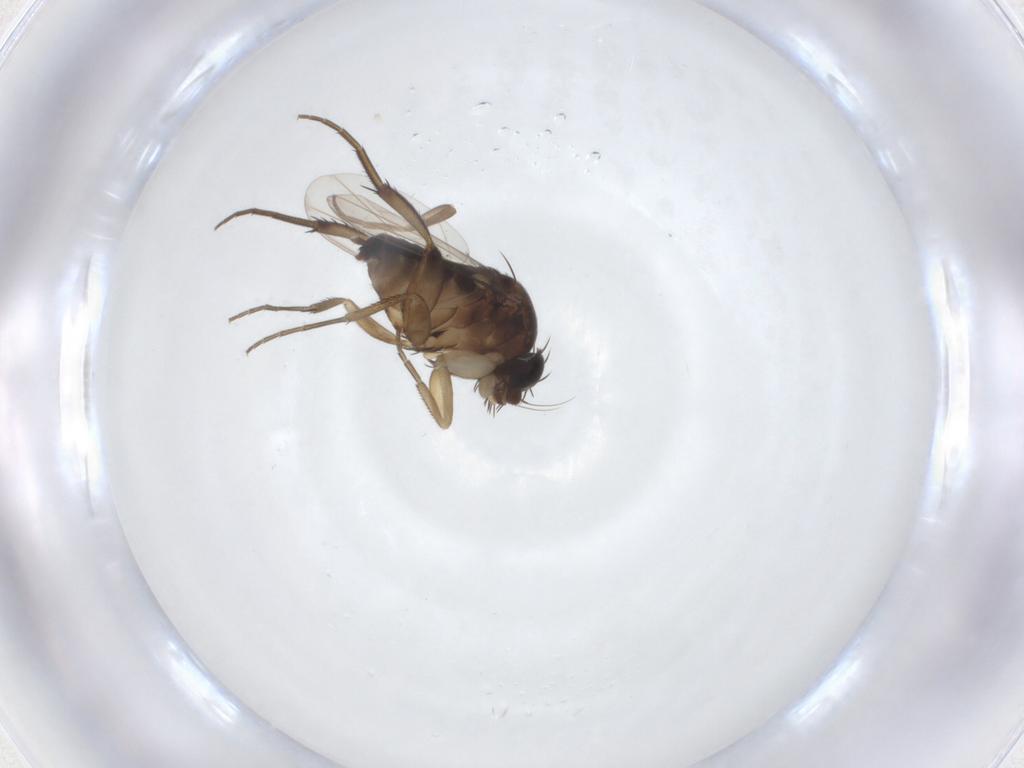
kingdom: Animalia
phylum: Arthropoda
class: Insecta
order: Diptera
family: Phoridae
